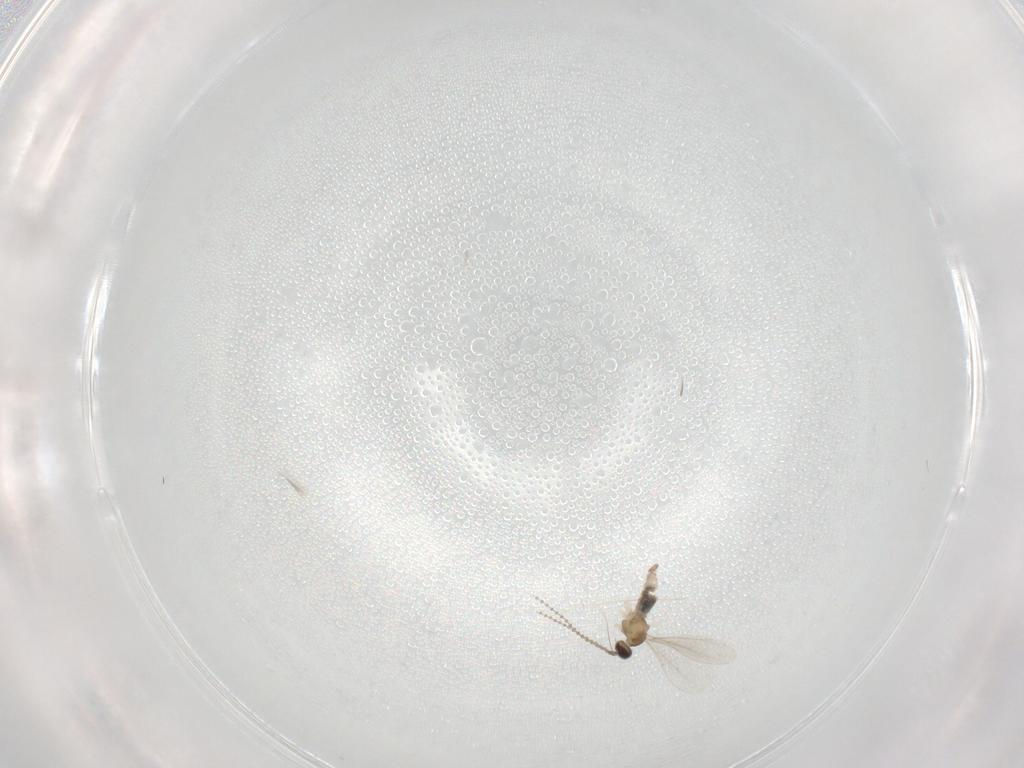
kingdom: Animalia
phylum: Arthropoda
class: Insecta
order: Diptera
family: Cecidomyiidae
